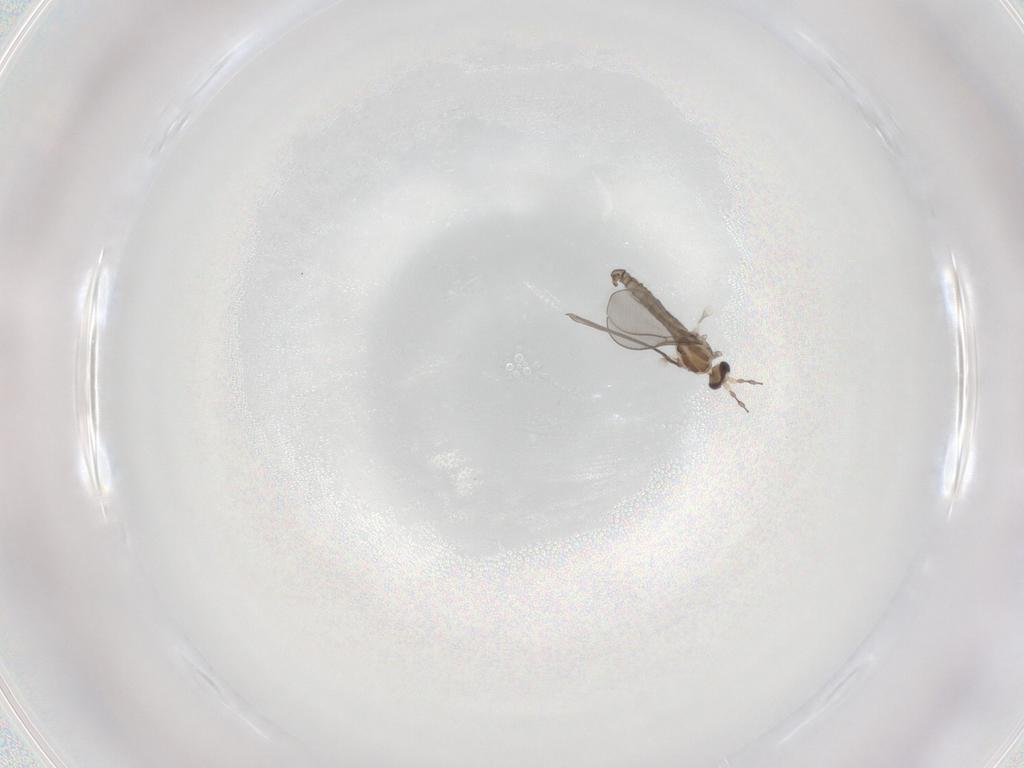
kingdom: Animalia
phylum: Arthropoda
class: Insecta
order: Diptera
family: Cecidomyiidae
